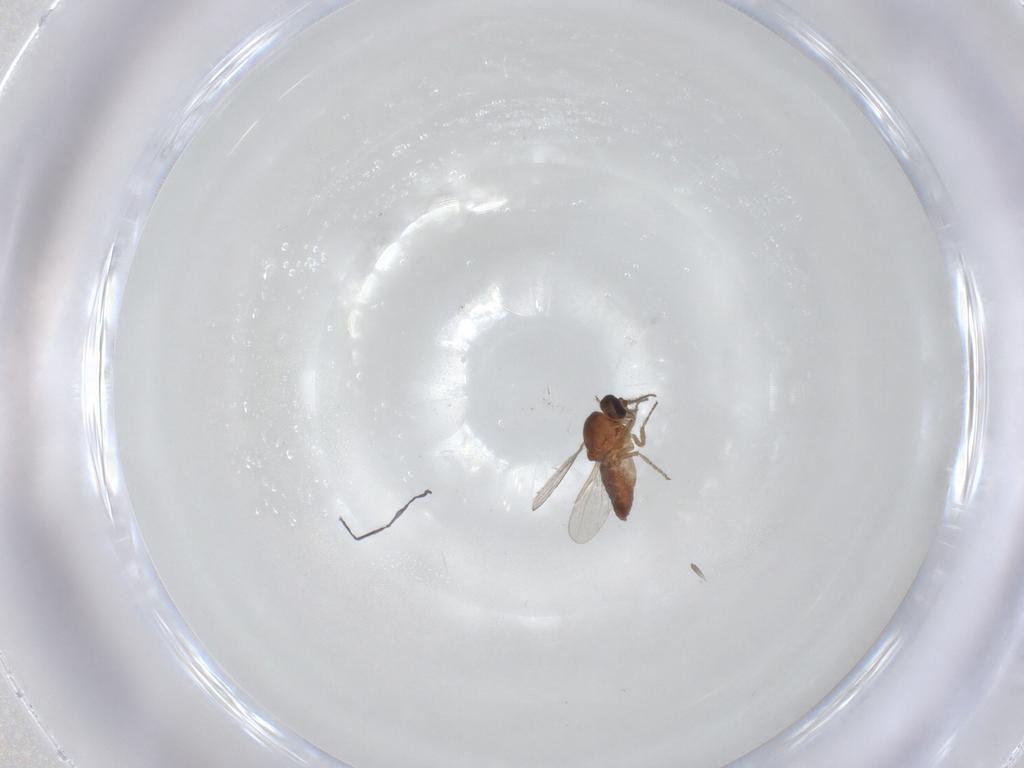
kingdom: Animalia
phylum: Arthropoda
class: Insecta
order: Diptera
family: Ceratopogonidae
